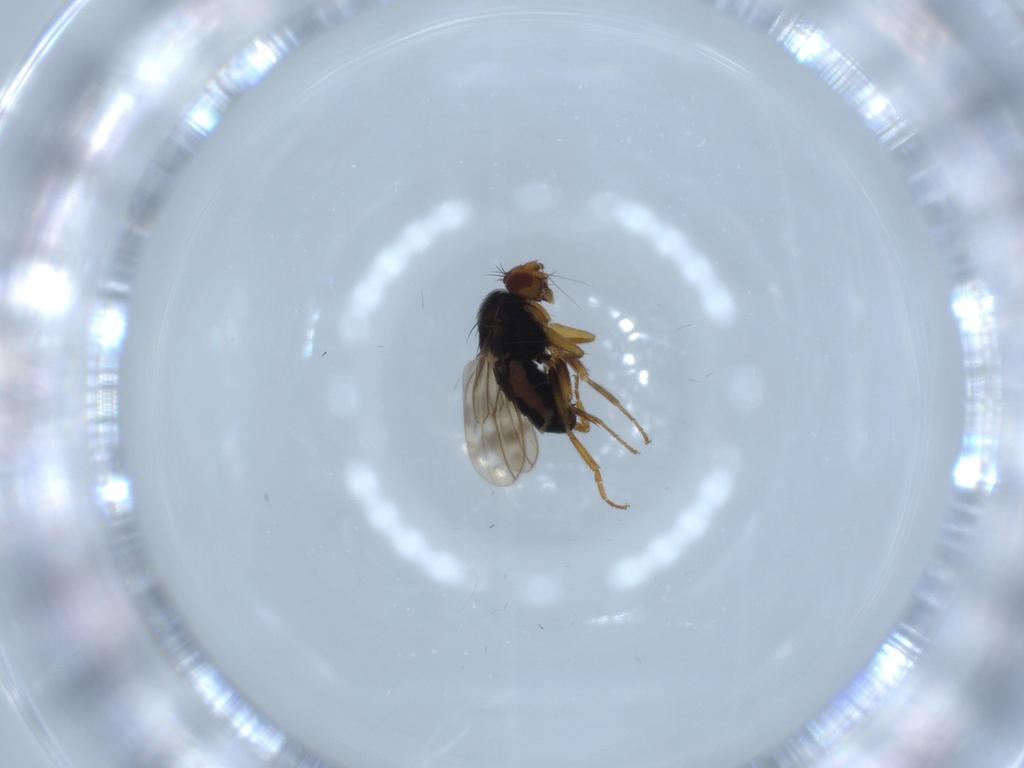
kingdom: Animalia
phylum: Arthropoda
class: Insecta
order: Diptera
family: Sphaeroceridae
